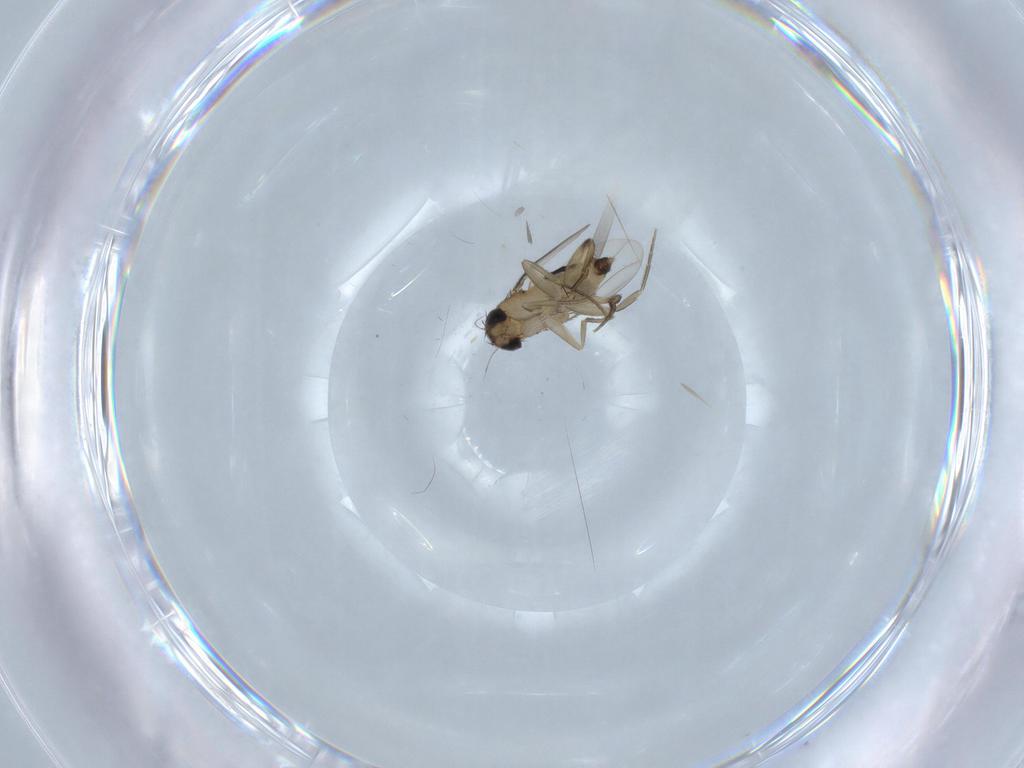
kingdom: Animalia
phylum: Arthropoda
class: Insecta
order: Diptera
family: Phoridae
